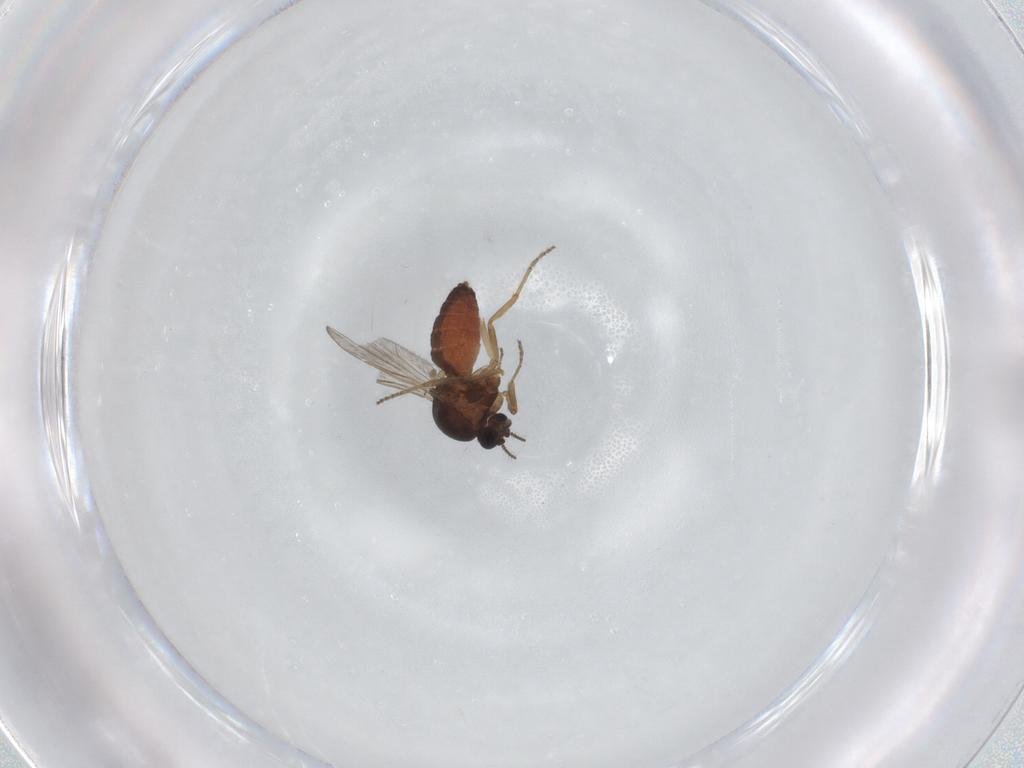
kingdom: Animalia
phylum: Arthropoda
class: Insecta
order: Diptera
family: Ceratopogonidae
